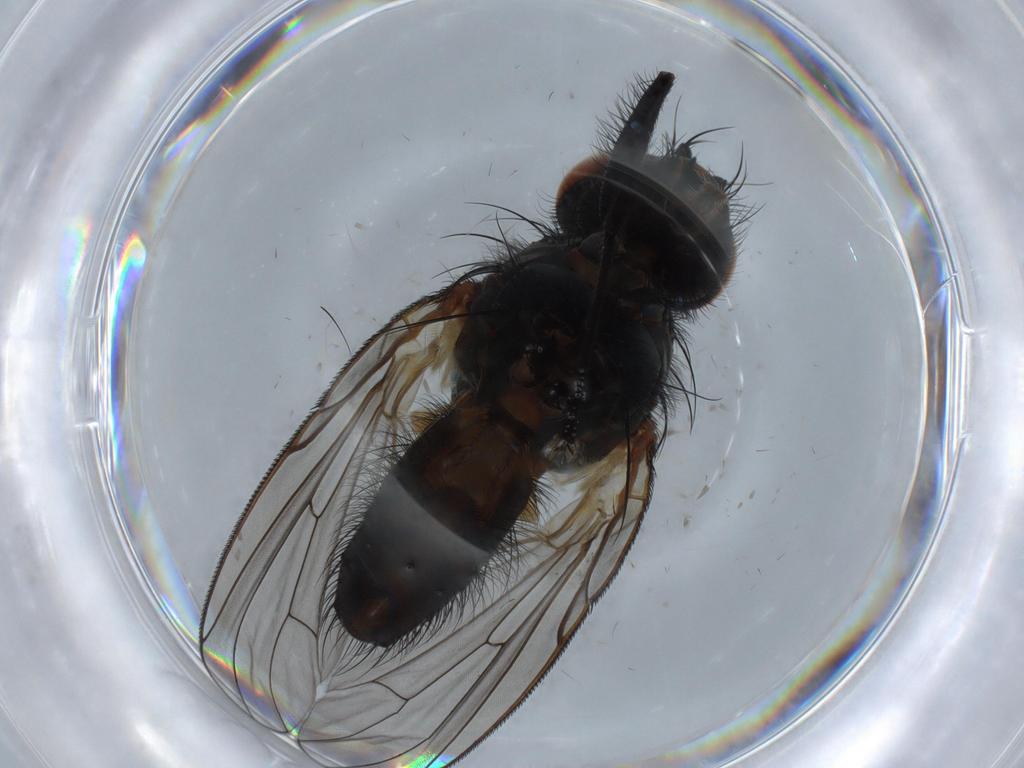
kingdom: Animalia
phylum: Arthropoda
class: Insecta
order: Diptera
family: Anthomyiidae
